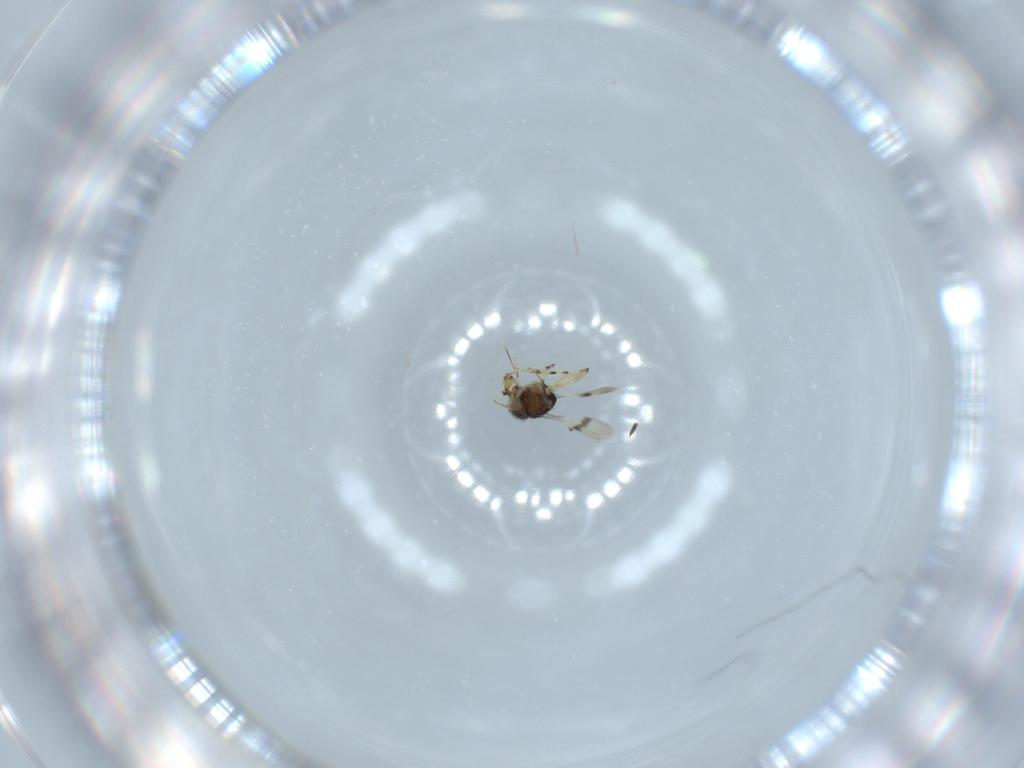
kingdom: Animalia
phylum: Arthropoda
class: Insecta
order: Hymenoptera
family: Scelionidae
